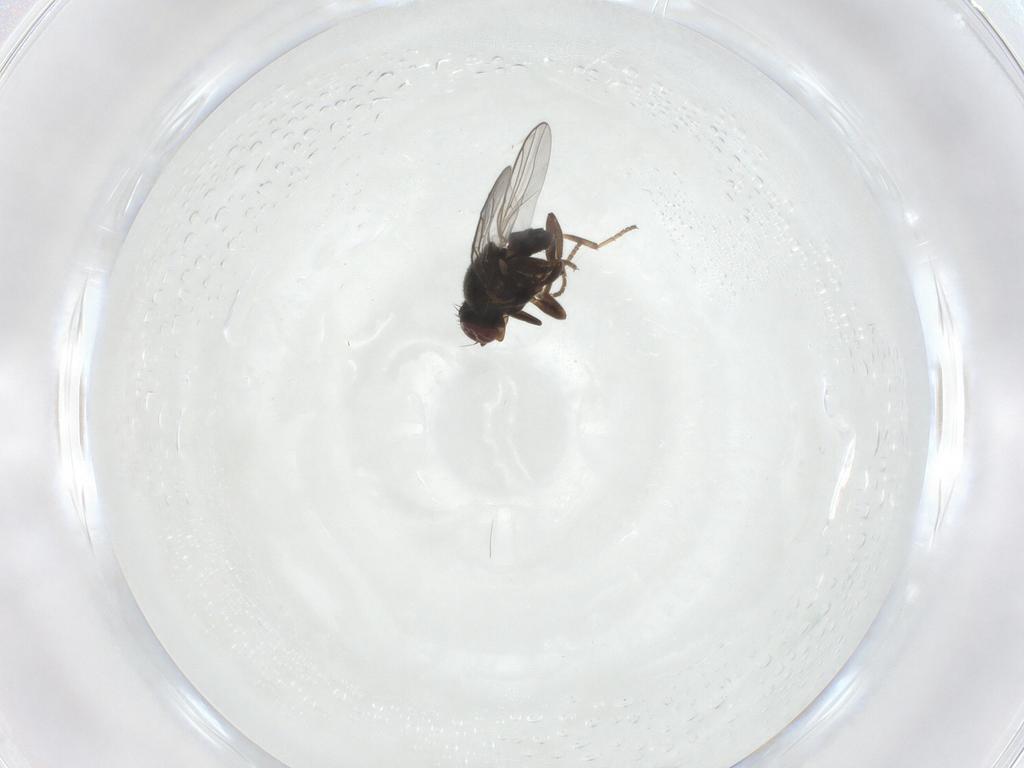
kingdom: Animalia
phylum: Arthropoda
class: Insecta
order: Diptera
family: Chloropidae
